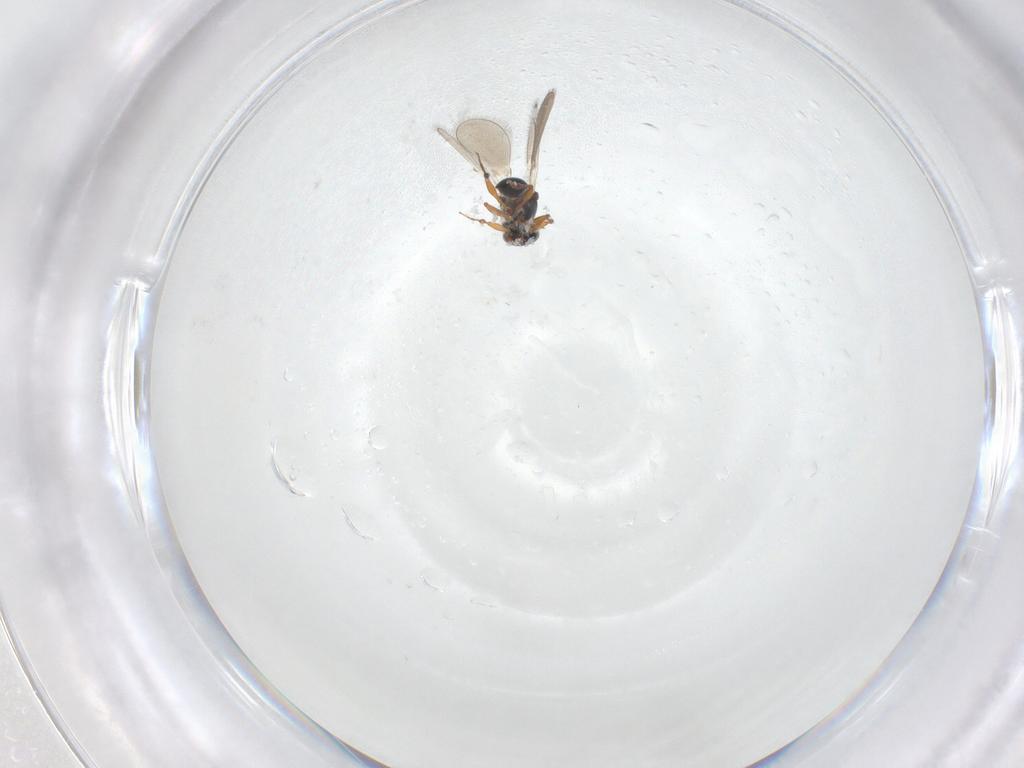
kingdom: Animalia
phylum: Arthropoda
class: Insecta
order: Hymenoptera
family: Platygastridae
